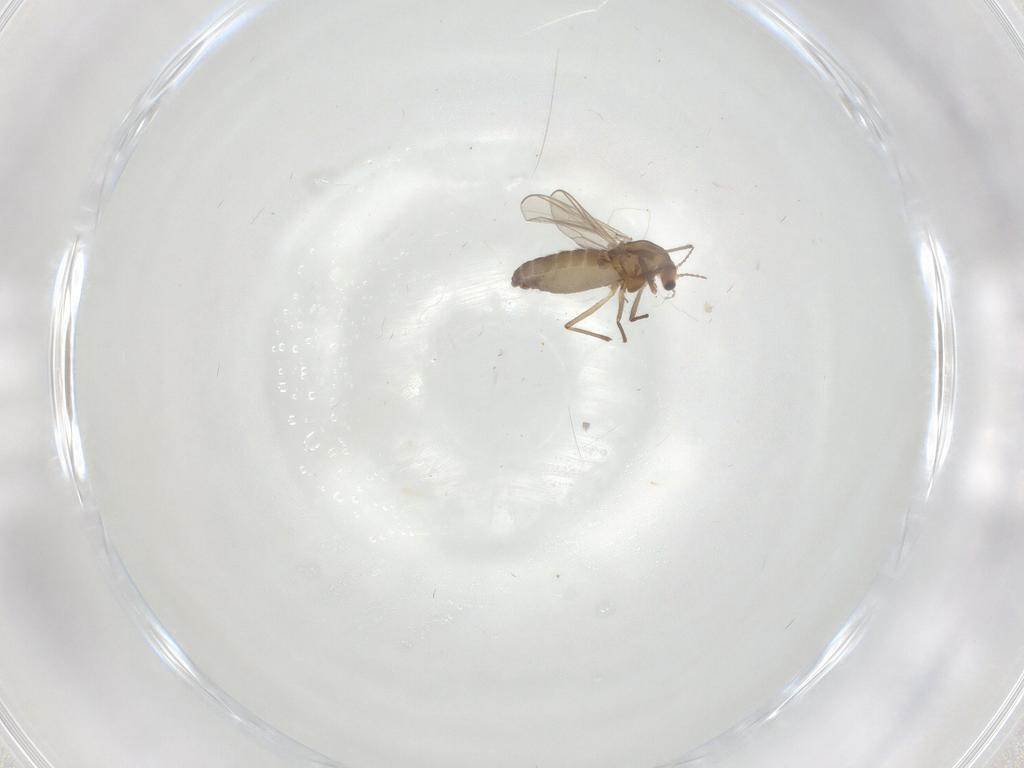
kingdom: Animalia
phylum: Arthropoda
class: Insecta
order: Diptera
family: Chironomidae
